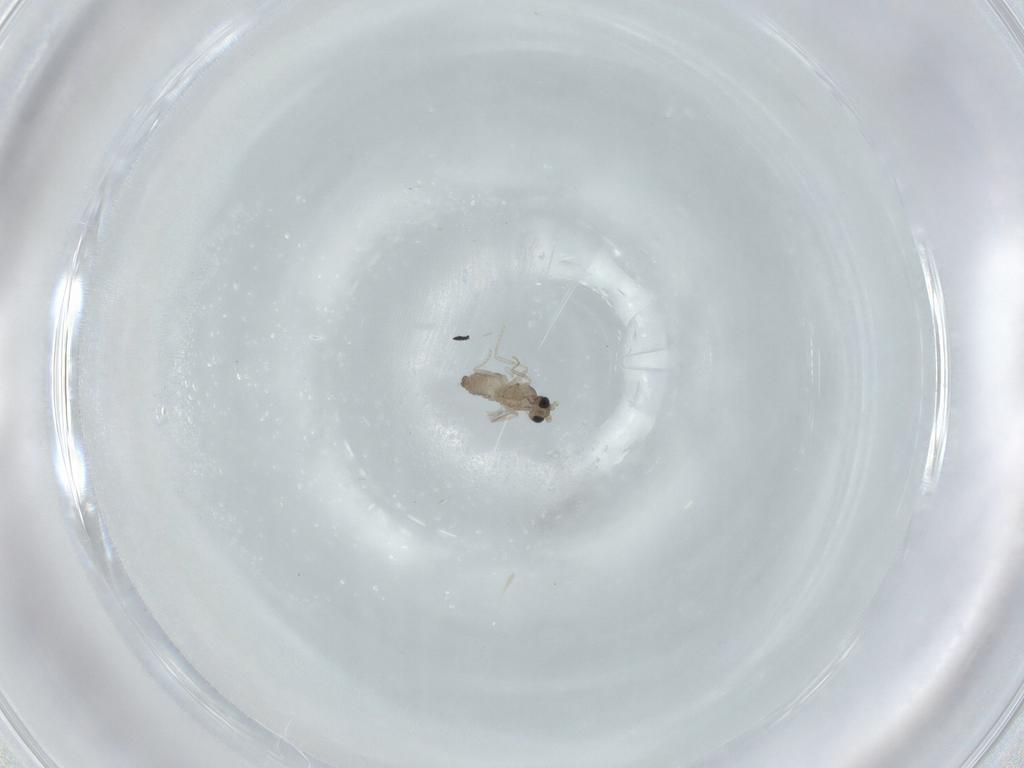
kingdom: Animalia
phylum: Arthropoda
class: Insecta
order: Diptera
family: Cecidomyiidae
